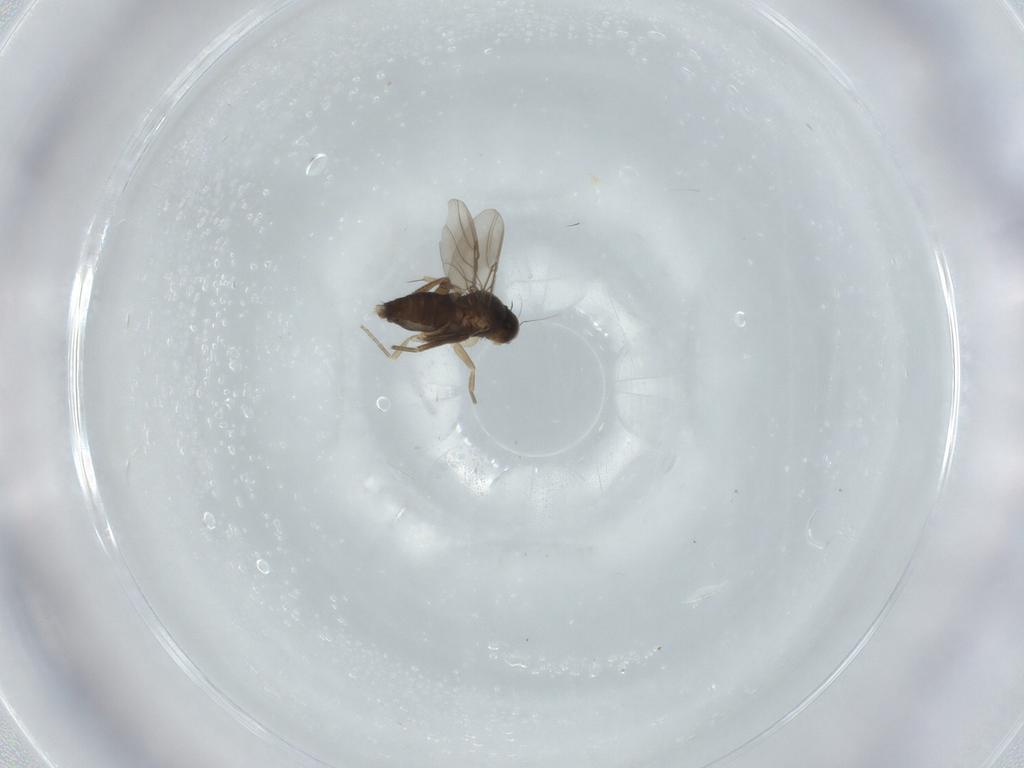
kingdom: Animalia
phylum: Arthropoda
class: Insecta
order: Diptera
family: Phoridae
